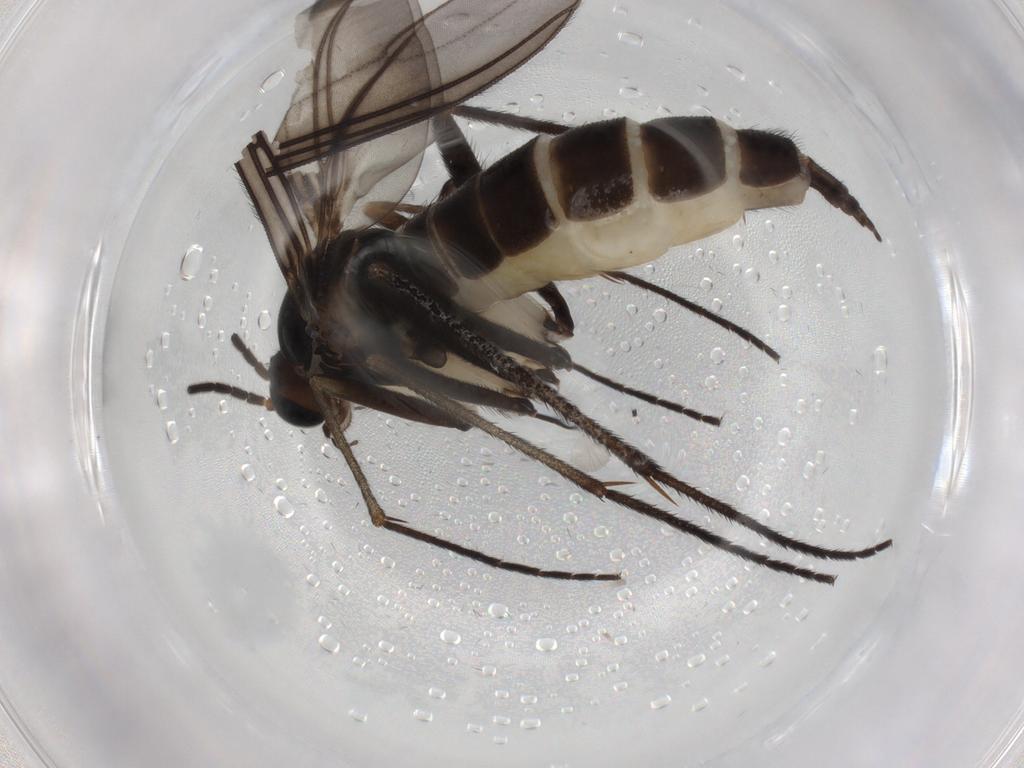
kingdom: Animalia
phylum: Arthropoda
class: Insecta
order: Diptera
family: Sciaridae
